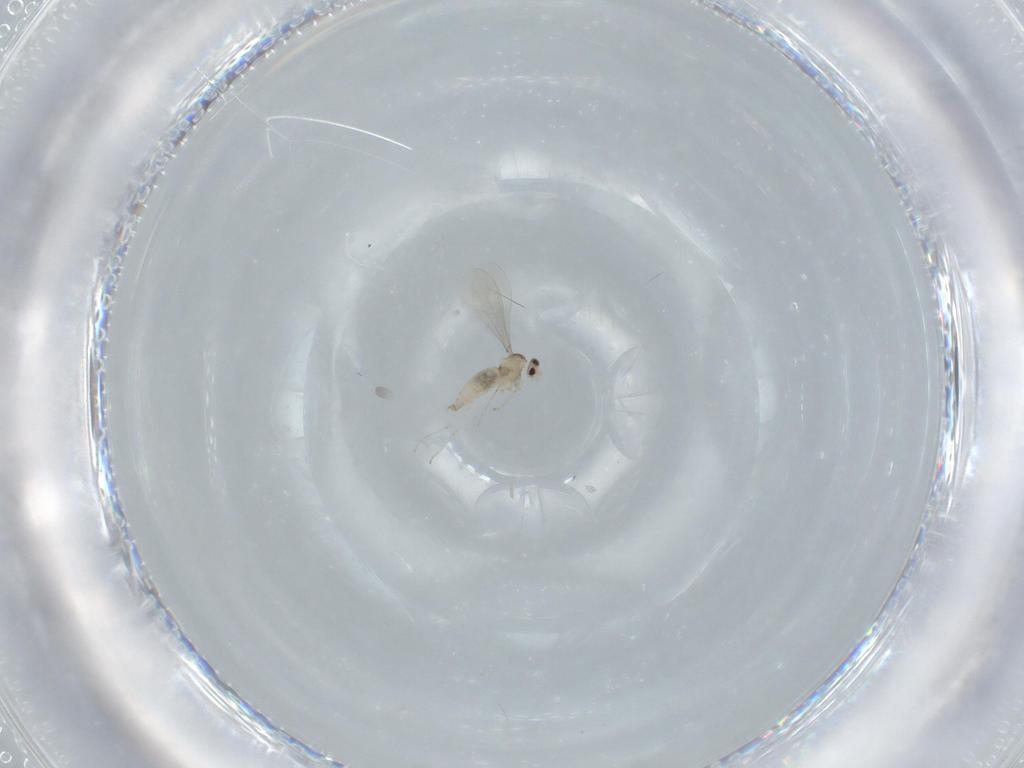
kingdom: Animalia
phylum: Arthropoda
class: Insecta
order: Diptera
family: Cecidomyiidae
